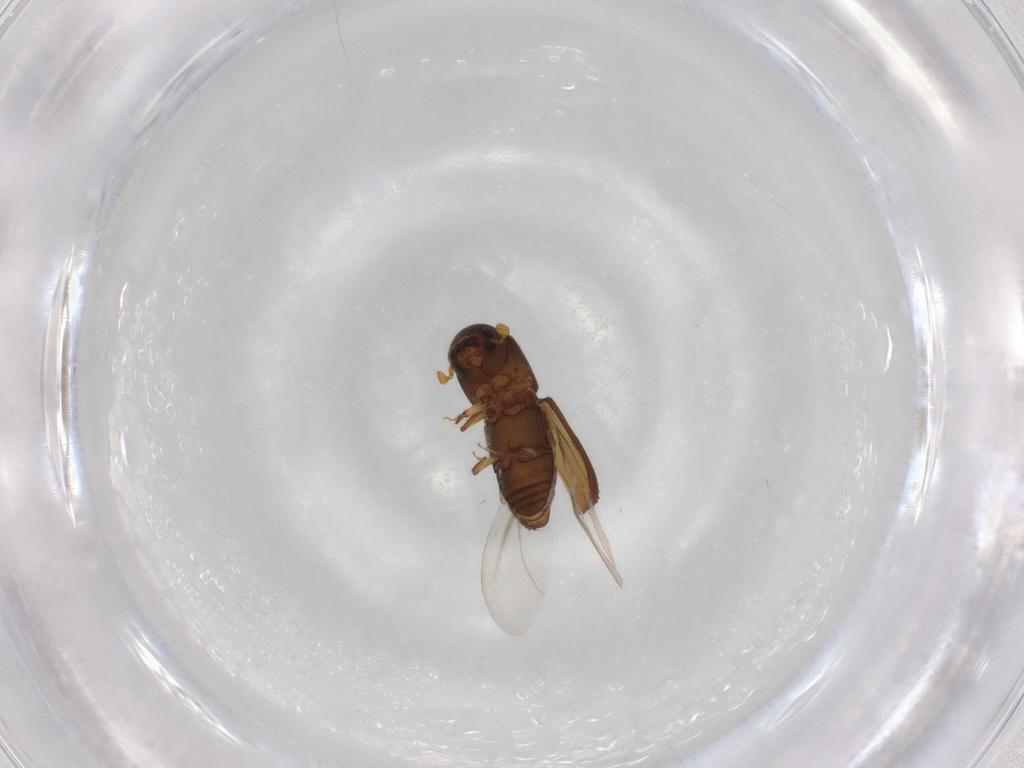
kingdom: Animalia
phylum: Arthropoda
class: Insecta
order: Coleoptera
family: Curculionidae
